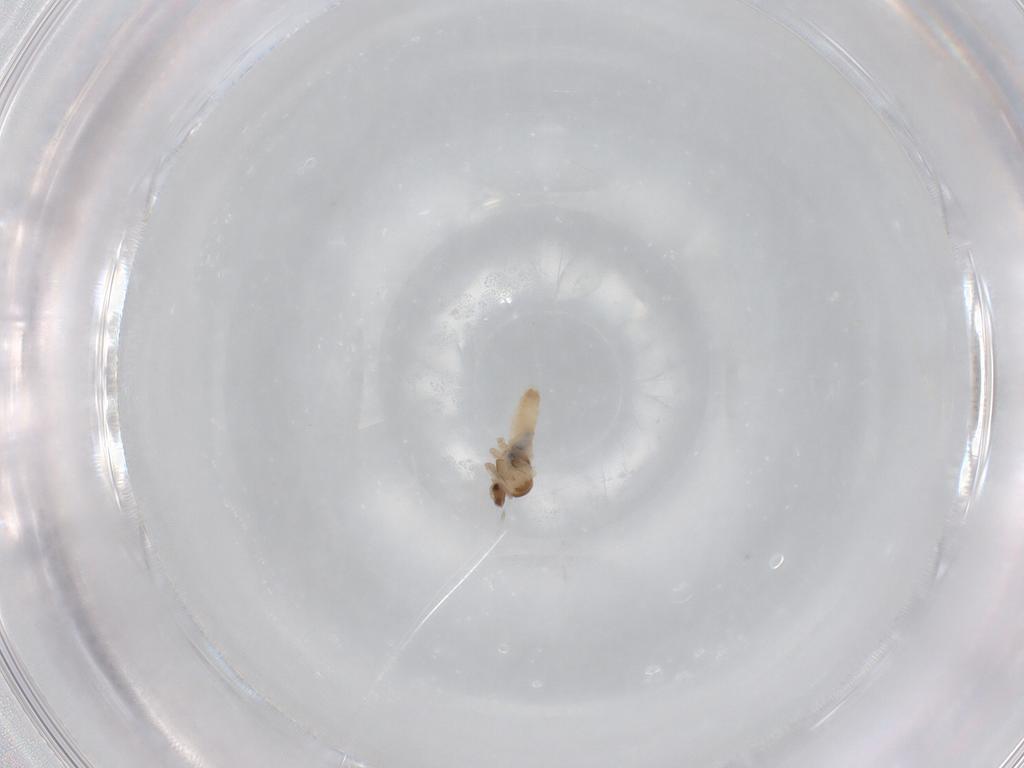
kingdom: Animalia
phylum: Arthropoda
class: Insecta
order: Diptera
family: Cecidomyiidae
